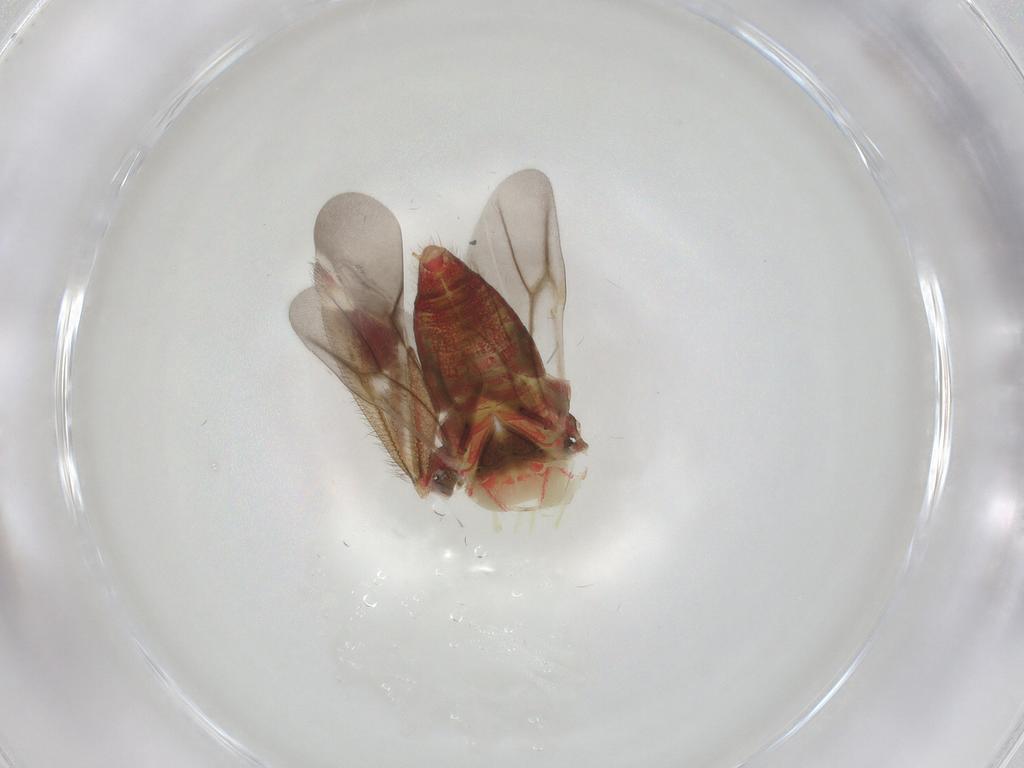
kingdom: Animalia
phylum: Arthropoda
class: Insecta
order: Hemiptera
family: Miridae
